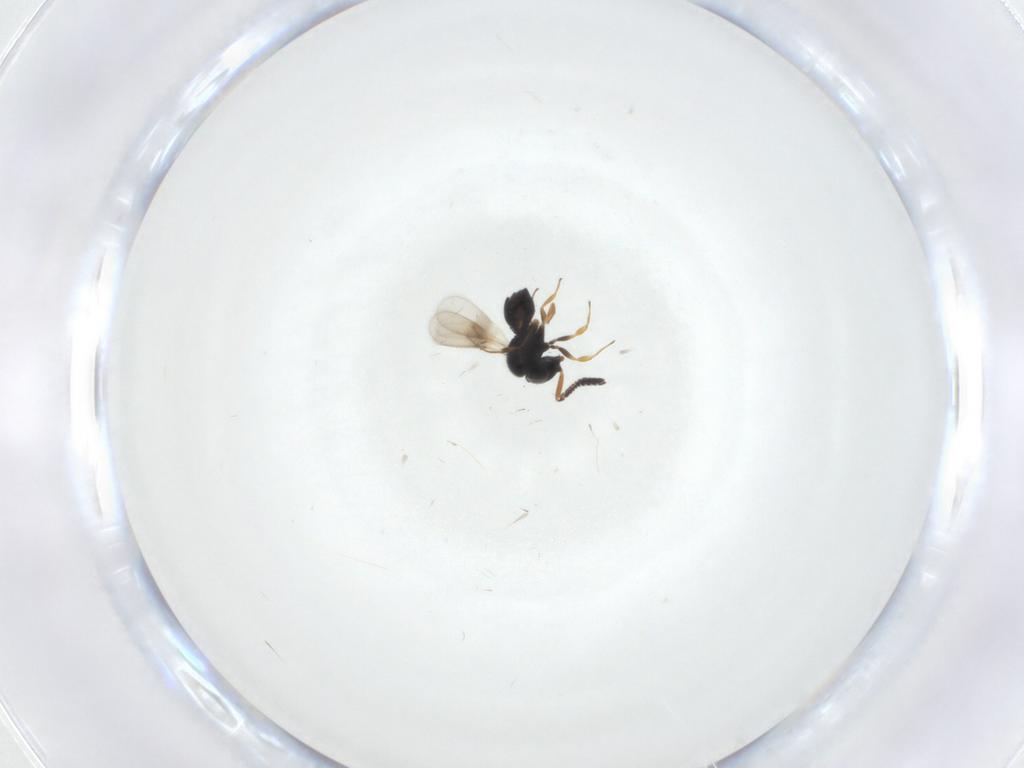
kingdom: Animalia
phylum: Arthropoda
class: Insecta
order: Hymenoptera
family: Scelionidae
